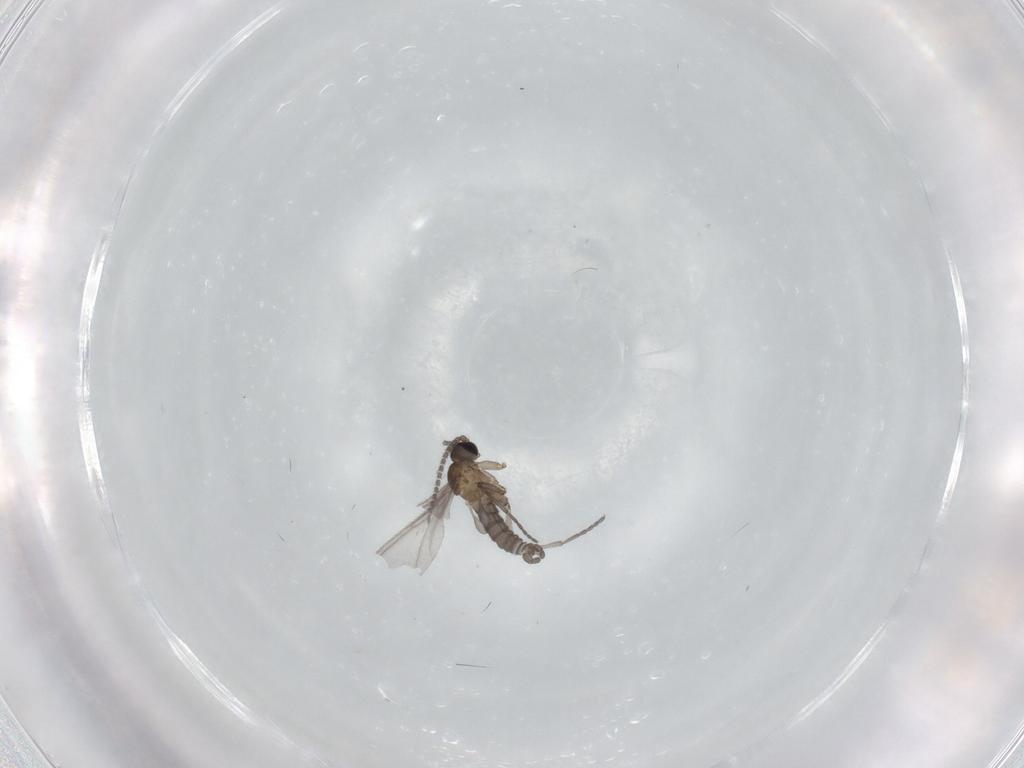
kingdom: Animalia
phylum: Arthropoda
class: Insecta
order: Diptera
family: Sciaridae
